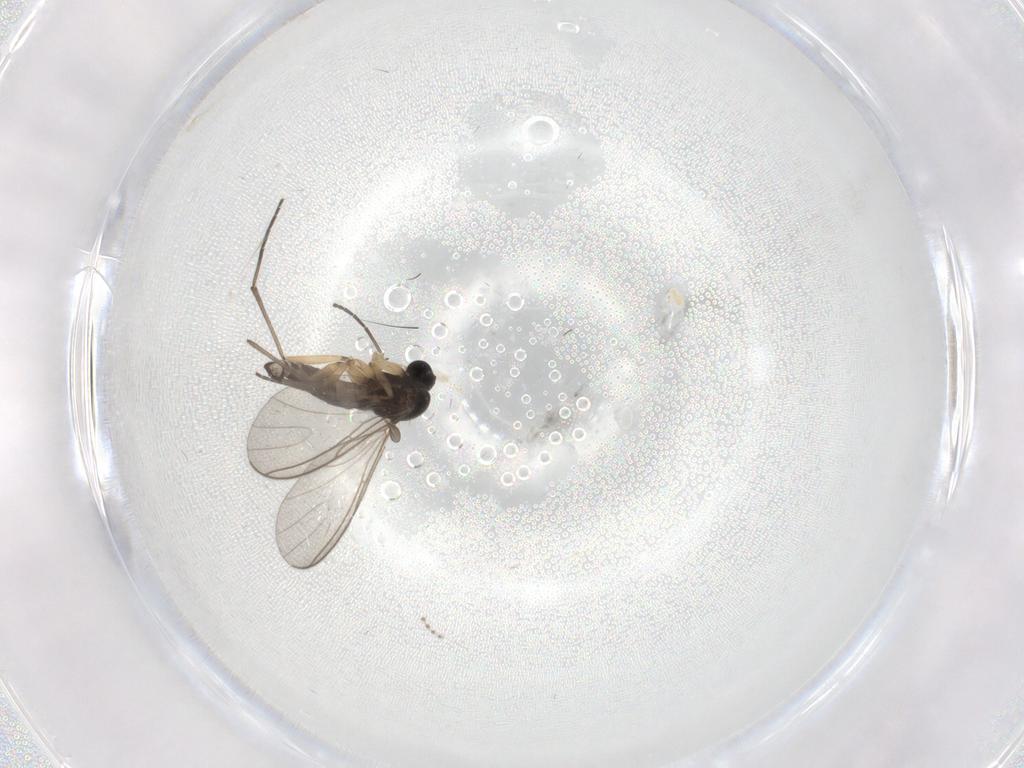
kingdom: Animalia
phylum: Arthropoda
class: Insecta
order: Diptera
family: Sciaridae
